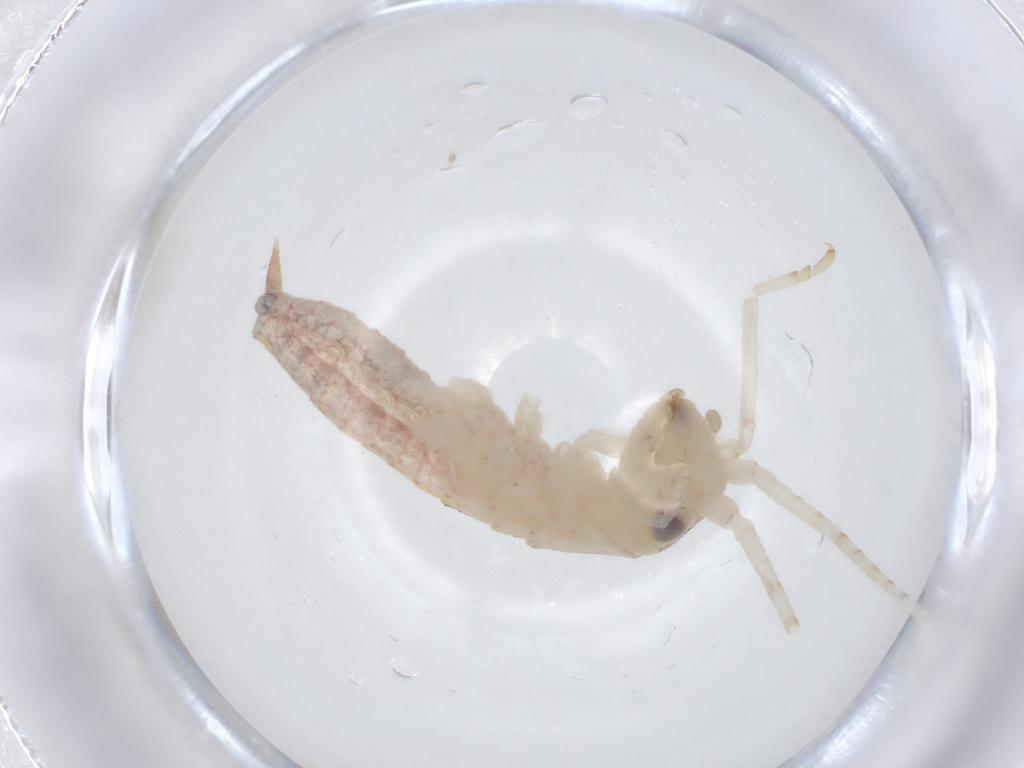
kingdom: Animalia
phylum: Arthropoda
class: Insecta
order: Orthoptera
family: Oecanthidae
